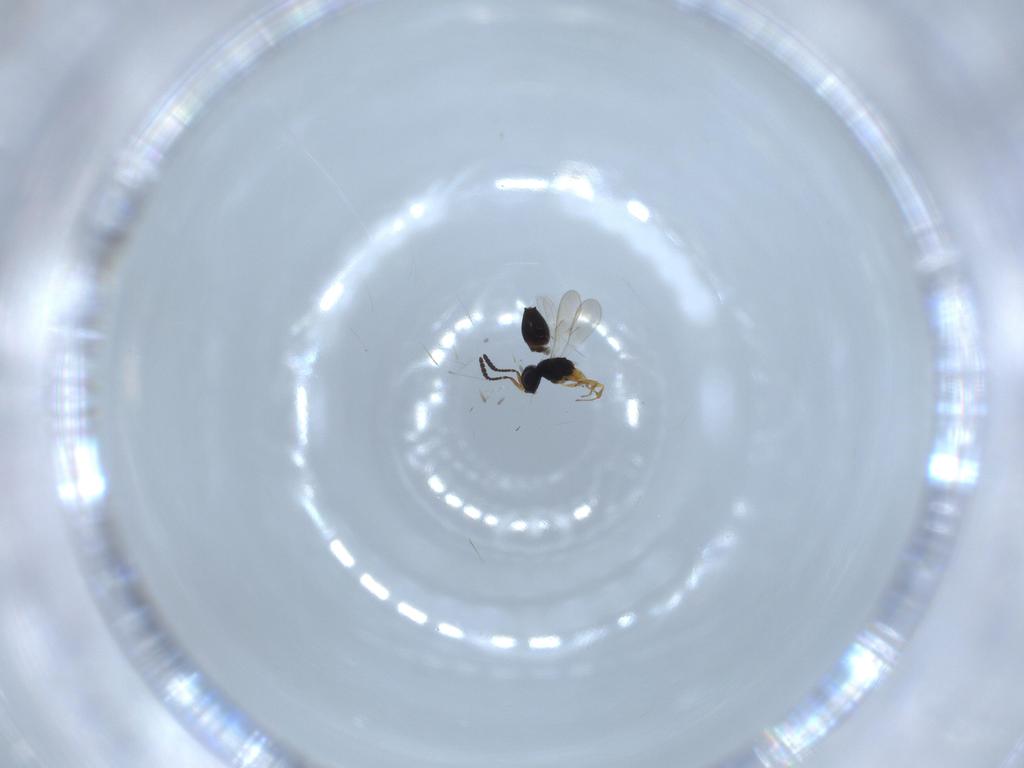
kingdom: Animalia
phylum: Arthropoda
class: Insecta
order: Hymenoptera
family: Scelionidae
